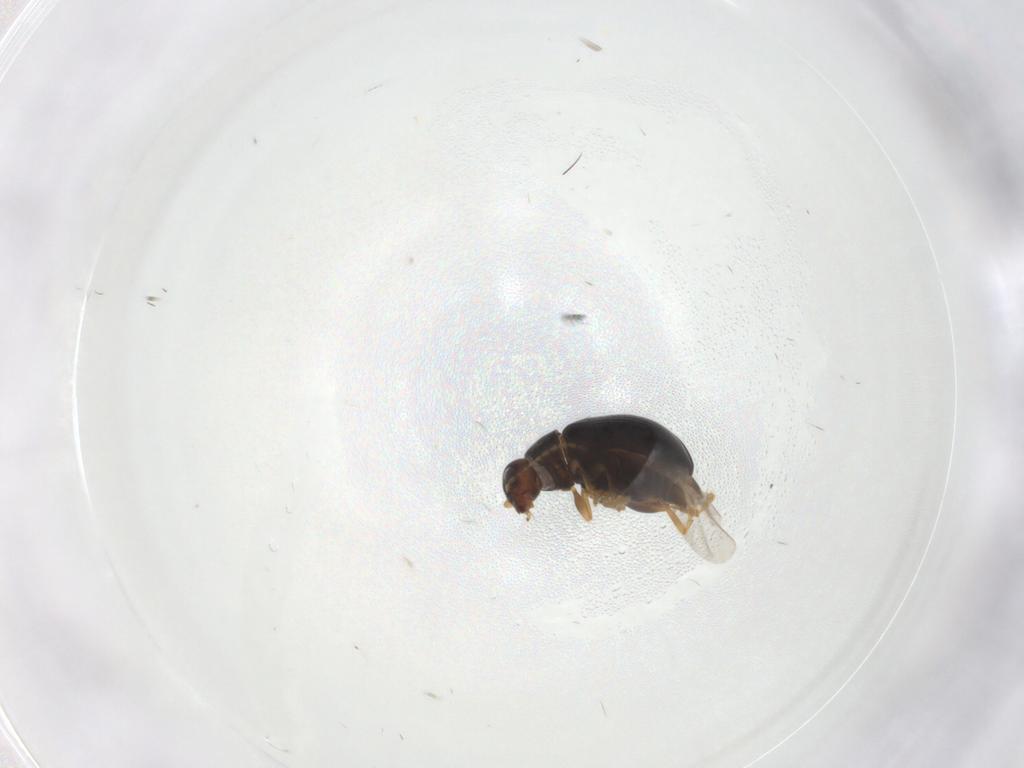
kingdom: Animalia
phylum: Arthropoda
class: Insecta
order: Coleoptera
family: Chrysomelidae
